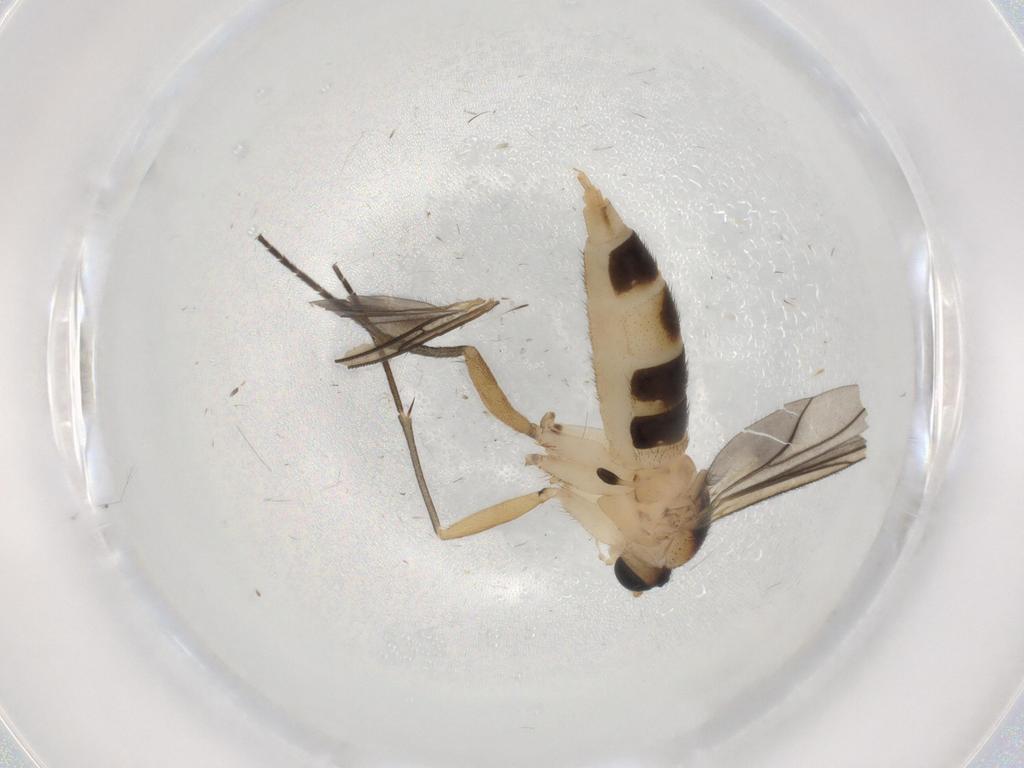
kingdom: Animalia
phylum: Arthropoda
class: Insecta
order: Diptera
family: Sciaridae
